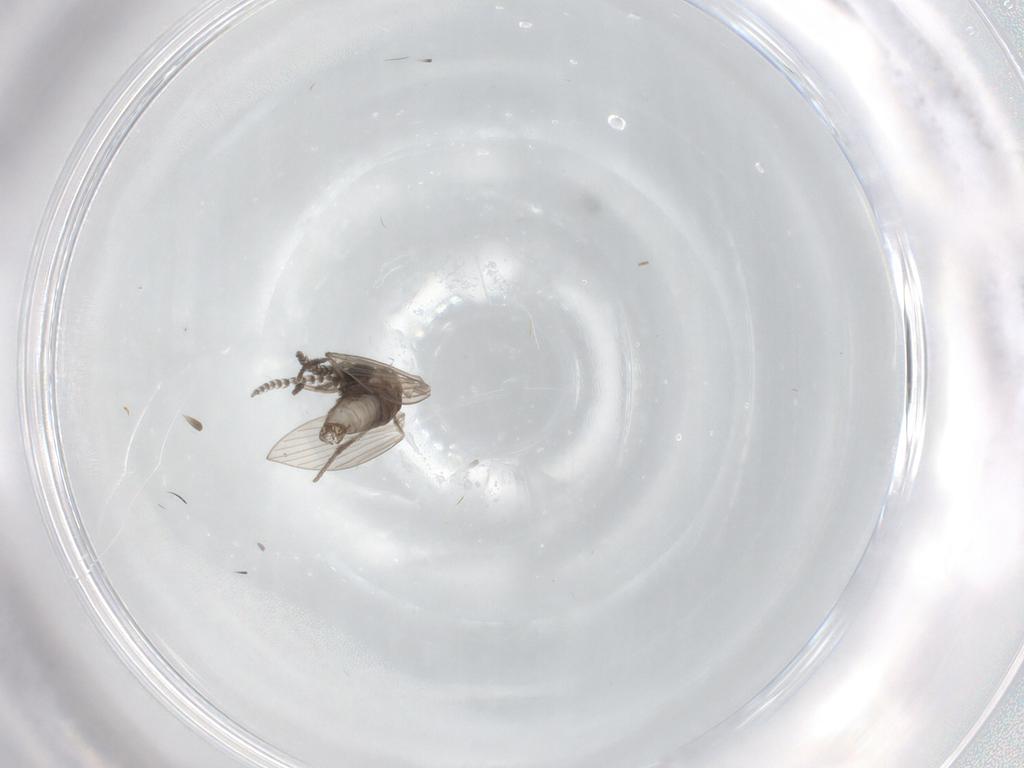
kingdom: Animalia
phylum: Arthropoda
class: Insecta
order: Diptera
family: Psychodidae
